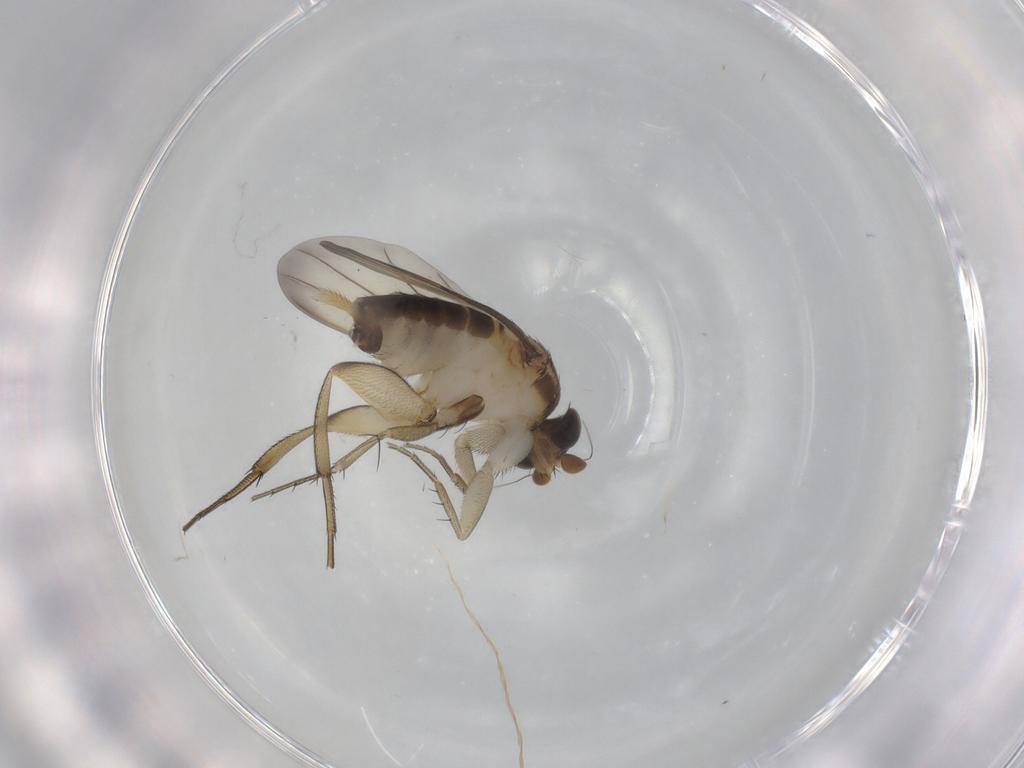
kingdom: Animalia
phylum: Arthropoda
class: Insecta
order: Diptera
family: Phoridae
